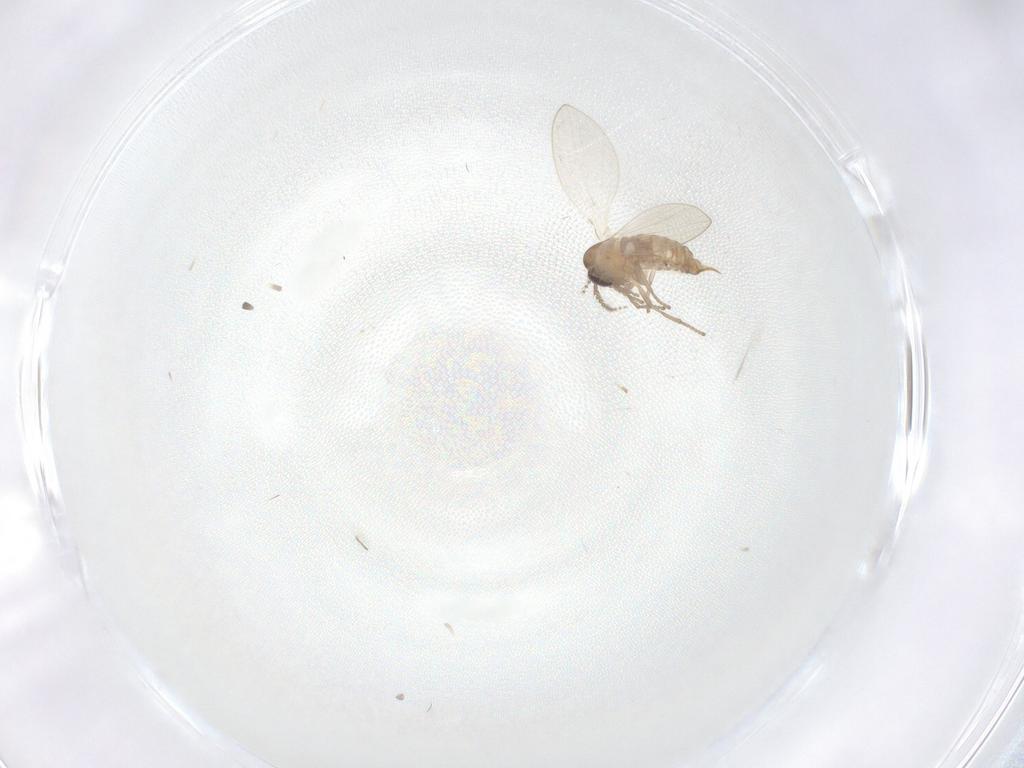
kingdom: Animalia
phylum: Arthropoda
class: Insecta
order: Diptera
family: Psychodidae
